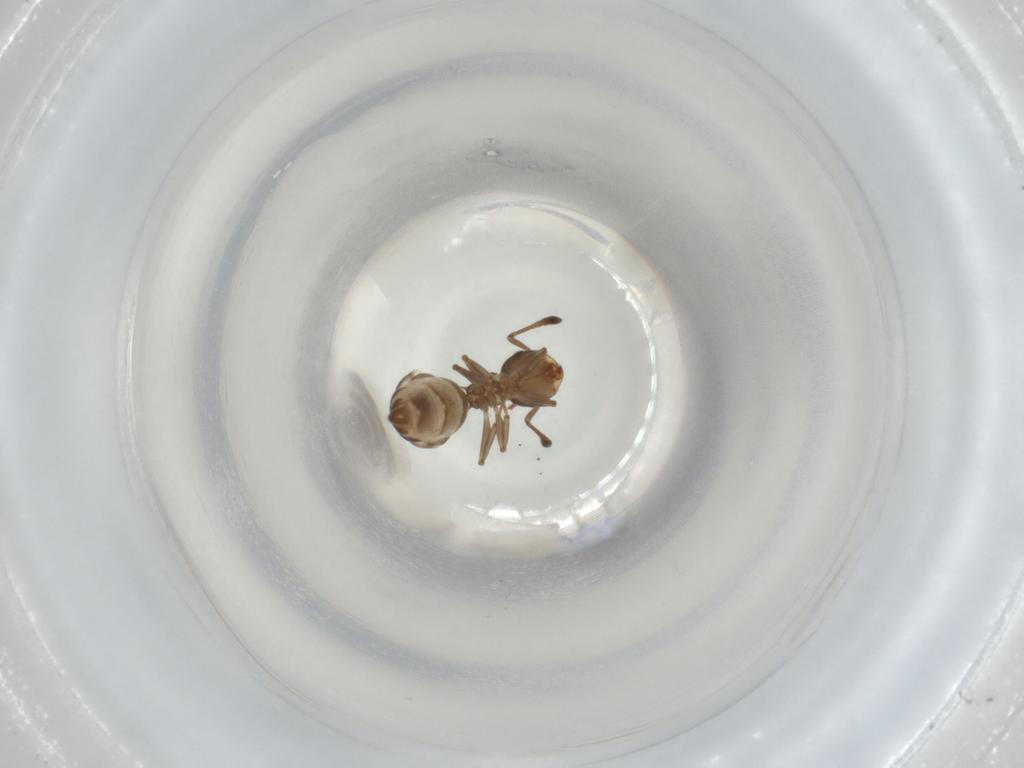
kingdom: Animalia
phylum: Arthropoda
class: Insecta
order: Hymenoptera
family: Formicidae
